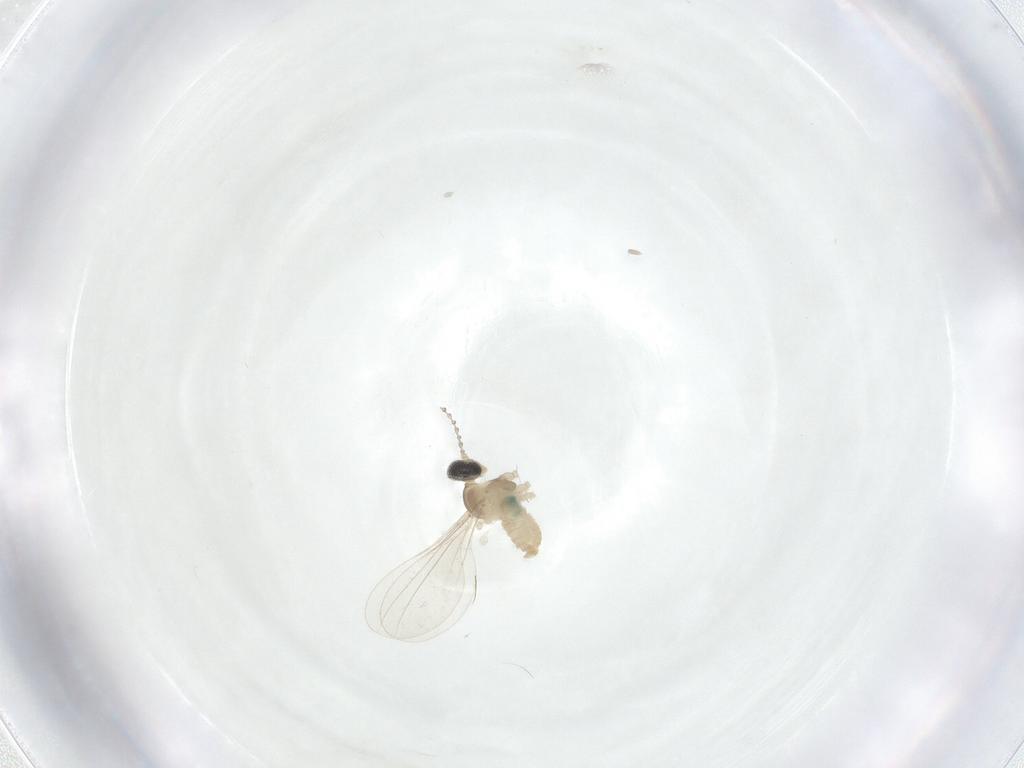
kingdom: Animalia
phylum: Arthropoda
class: Insecta
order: Diptera
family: Cecidomyiidae
